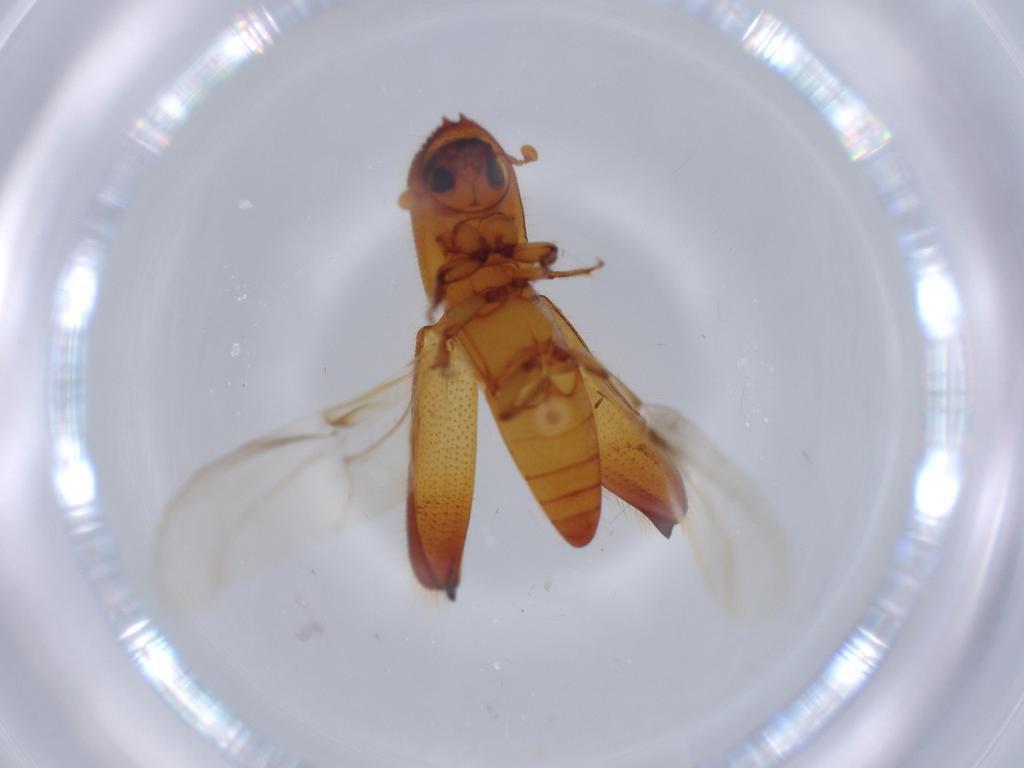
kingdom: Animalia
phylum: Arthropoda
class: Insecta
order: Coleoptera
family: Curculionidae
